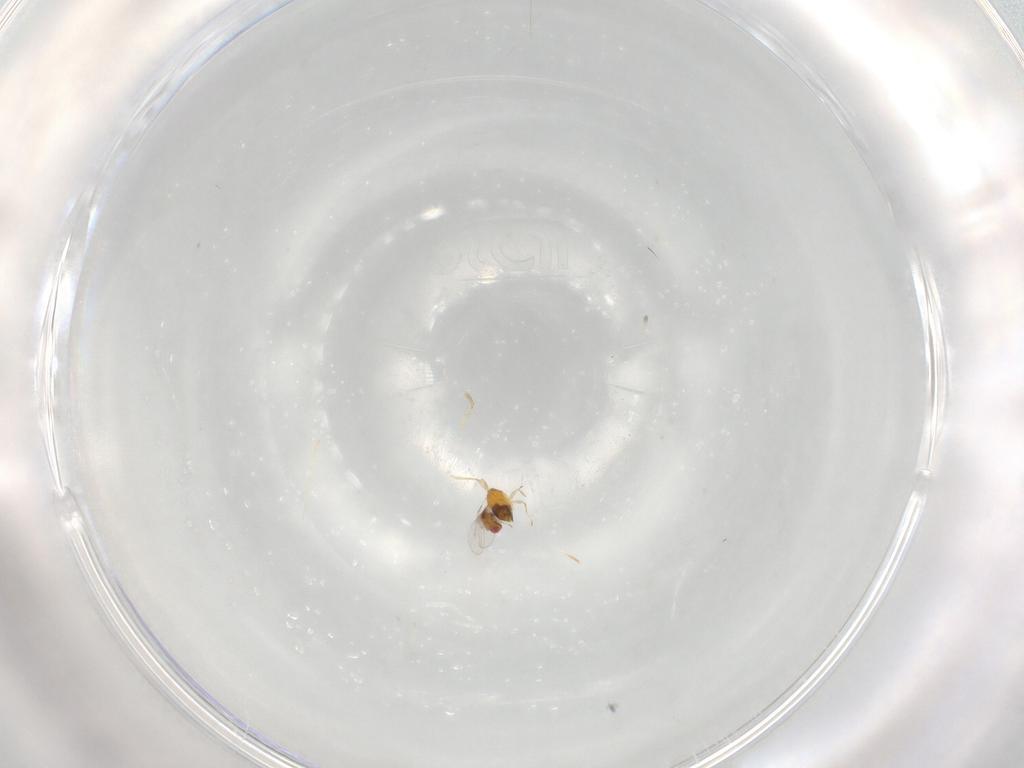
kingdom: Animalia
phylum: Arthropoda
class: Insecta
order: Hymenoptera
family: Trichogrammatidae
